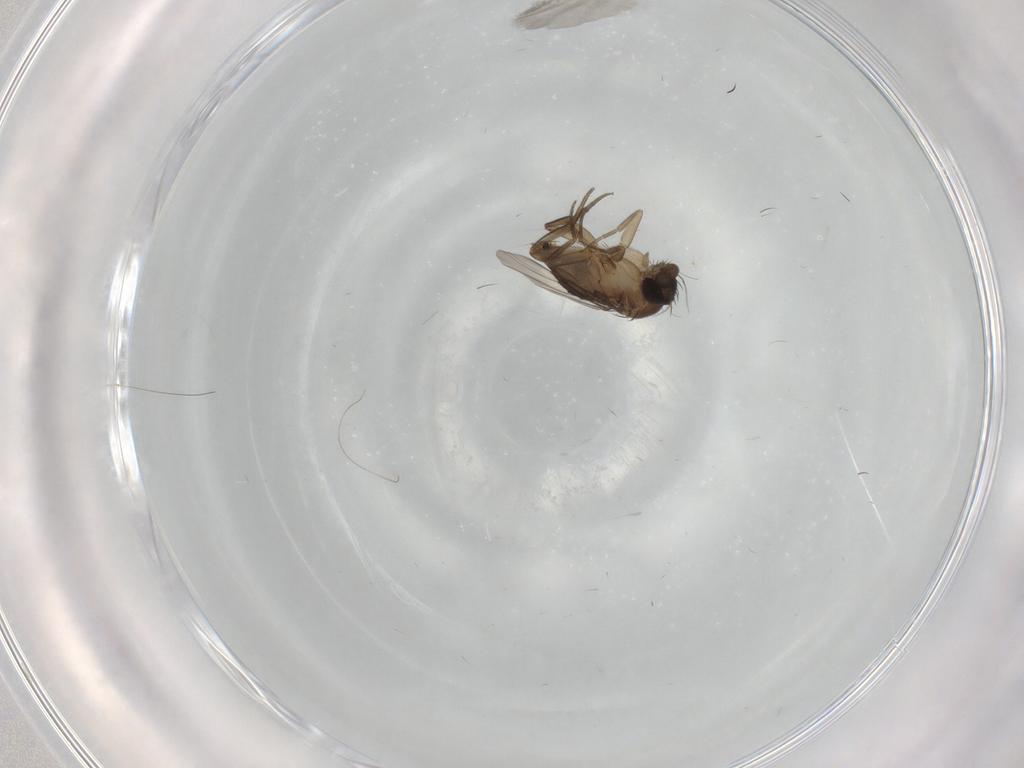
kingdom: Animalia
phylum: Arthropoda
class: Insecta
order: Diptera
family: Phoridae
